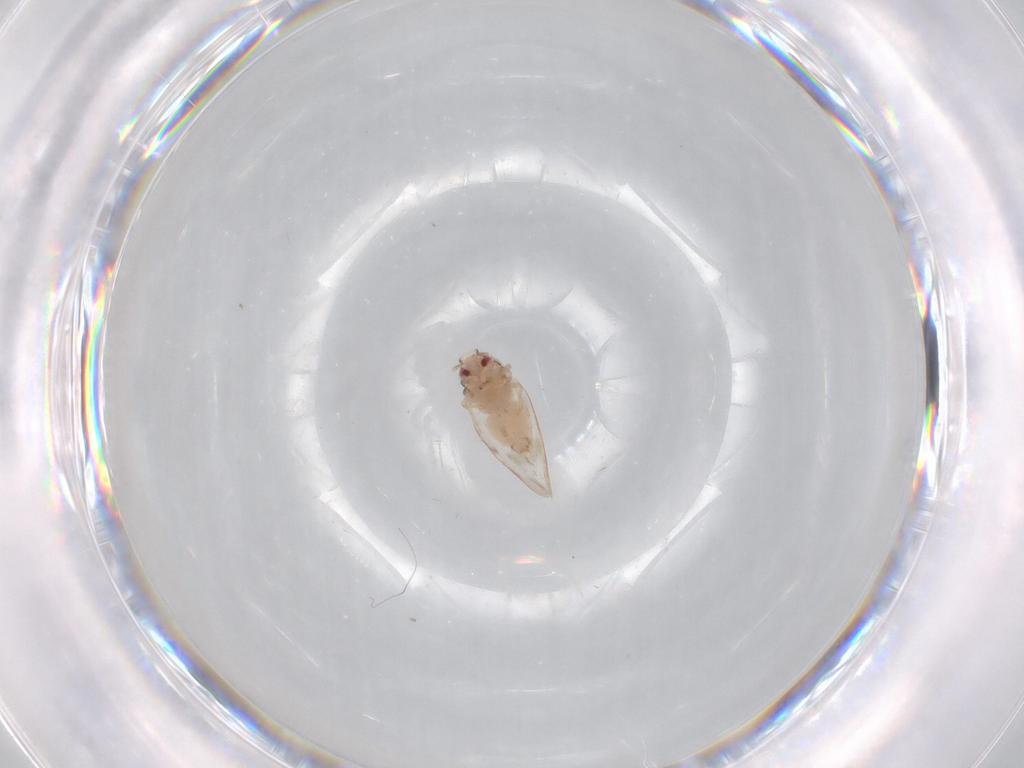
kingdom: Animalia
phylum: Arthropoda
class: Insecta
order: Hemiptera
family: Aleyrodidae
